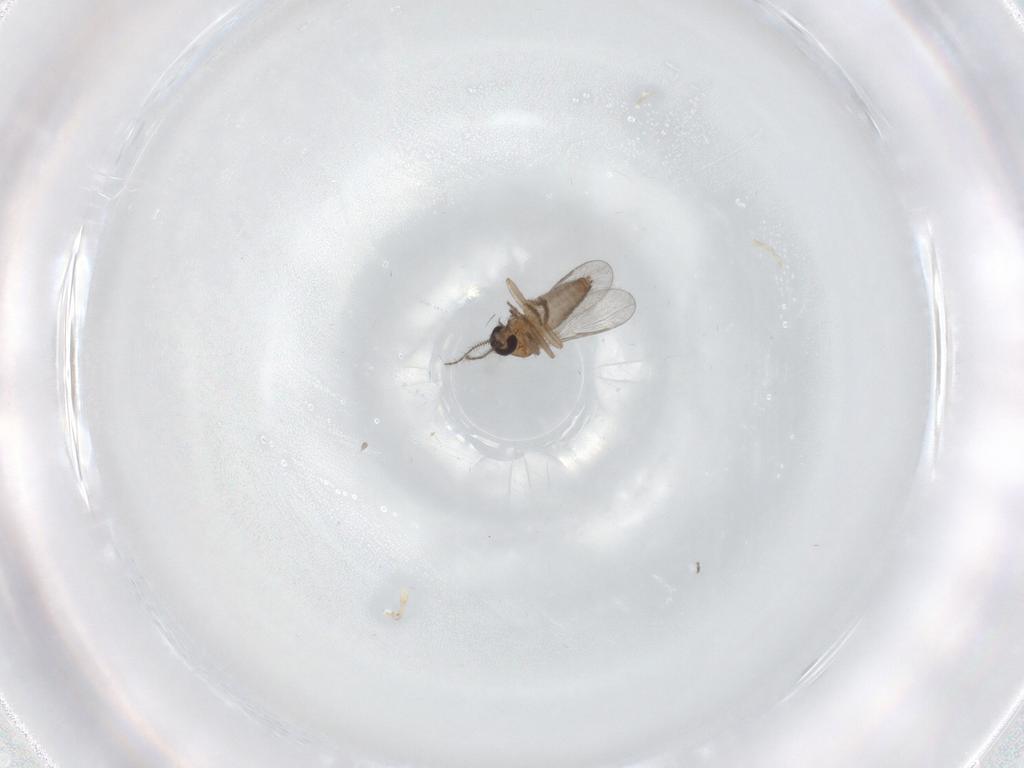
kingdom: Animalia
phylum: Arthropoda
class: Insecta
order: Diptera
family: Dolichopodidae
